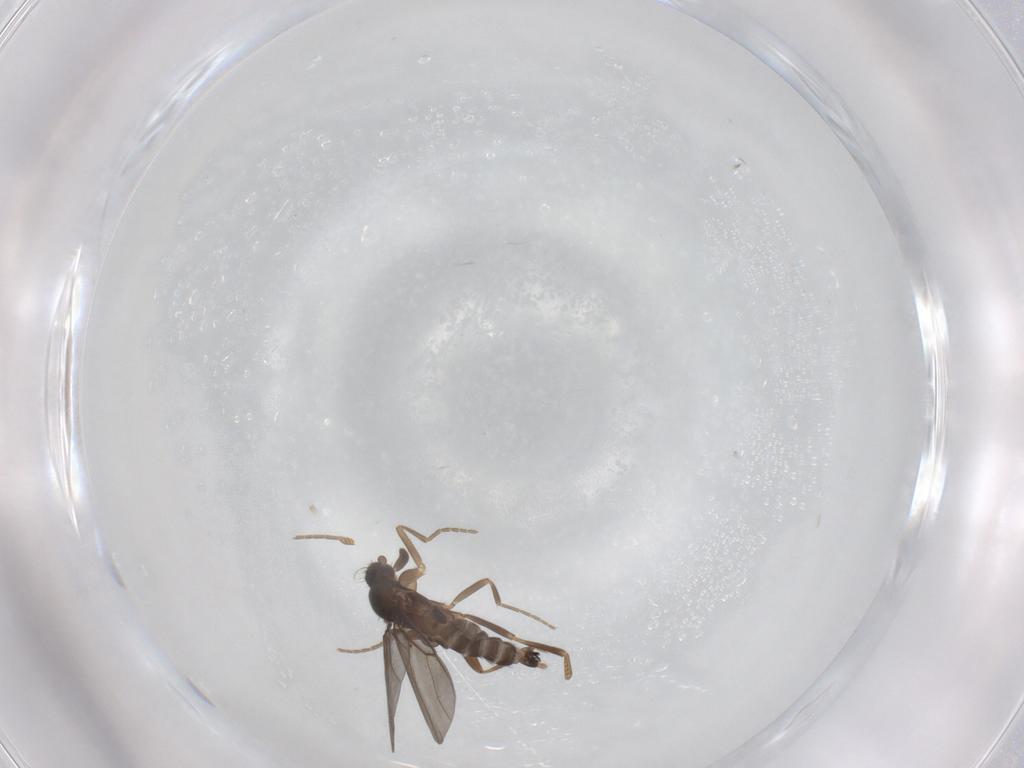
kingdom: Animalia
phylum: Arthropoda
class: Insecta
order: Diptera
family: Phoridae
